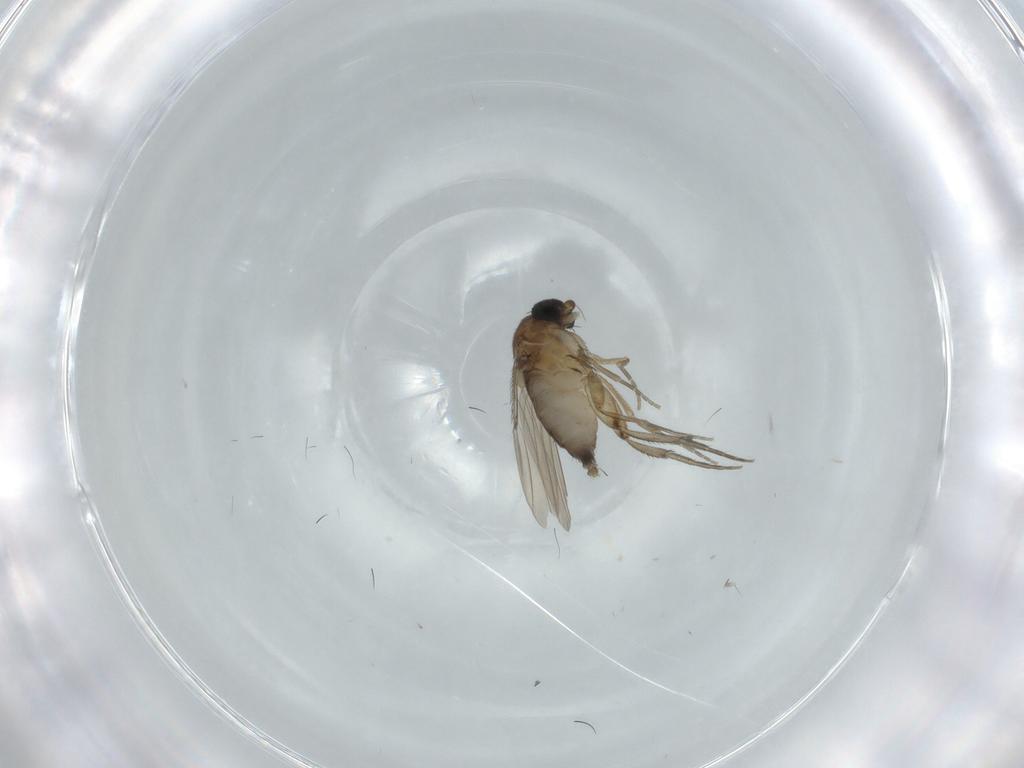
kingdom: Animalia
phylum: Arthropoda
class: Insecta
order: Diptera
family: Phoridae
